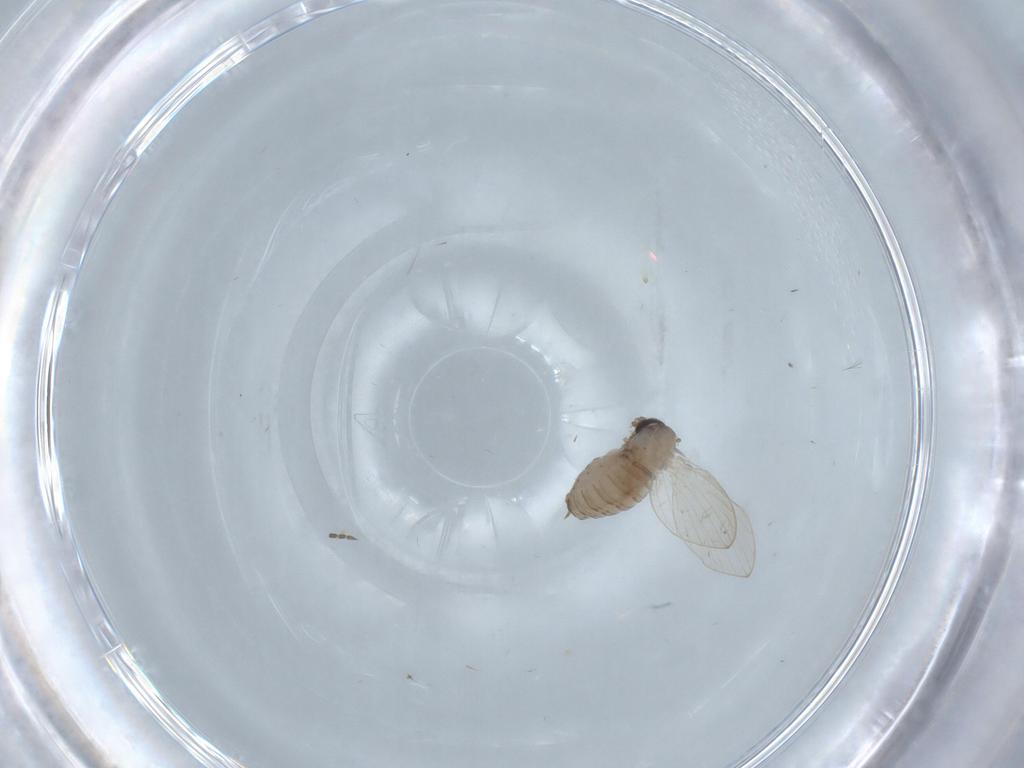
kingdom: Animalia
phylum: Arthropoda
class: Insecta
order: Diptera
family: Psychodidae
